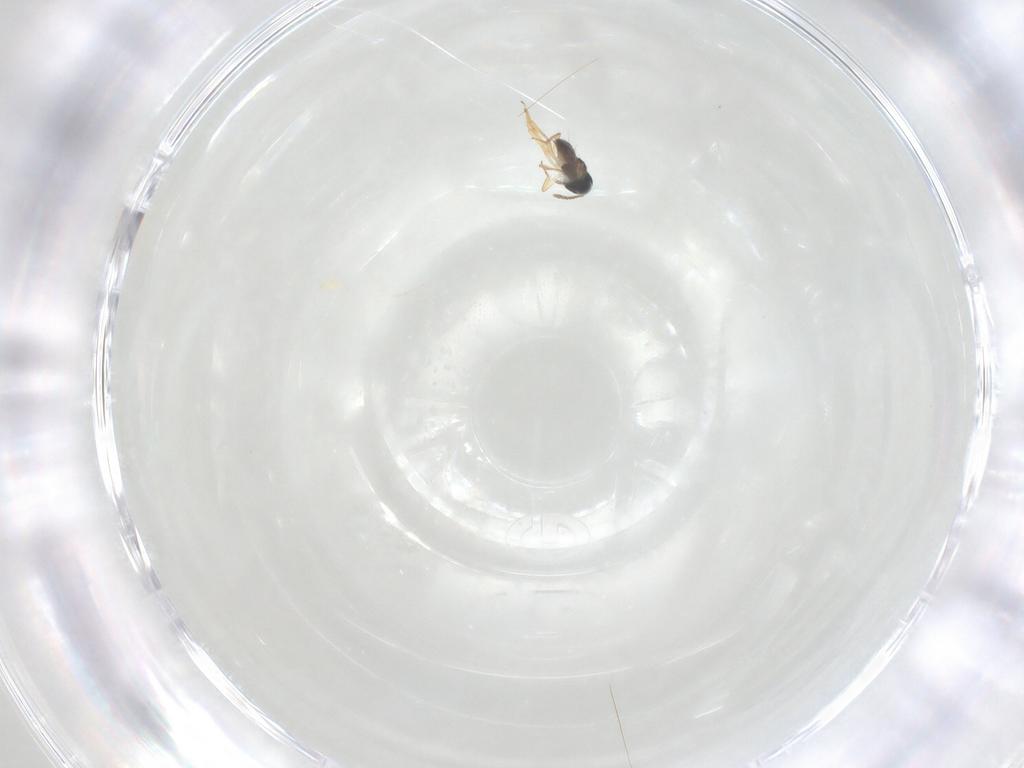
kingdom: Animalia
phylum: Arthropoda
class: Insecta
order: Hymenoptera
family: Encyrtidae
